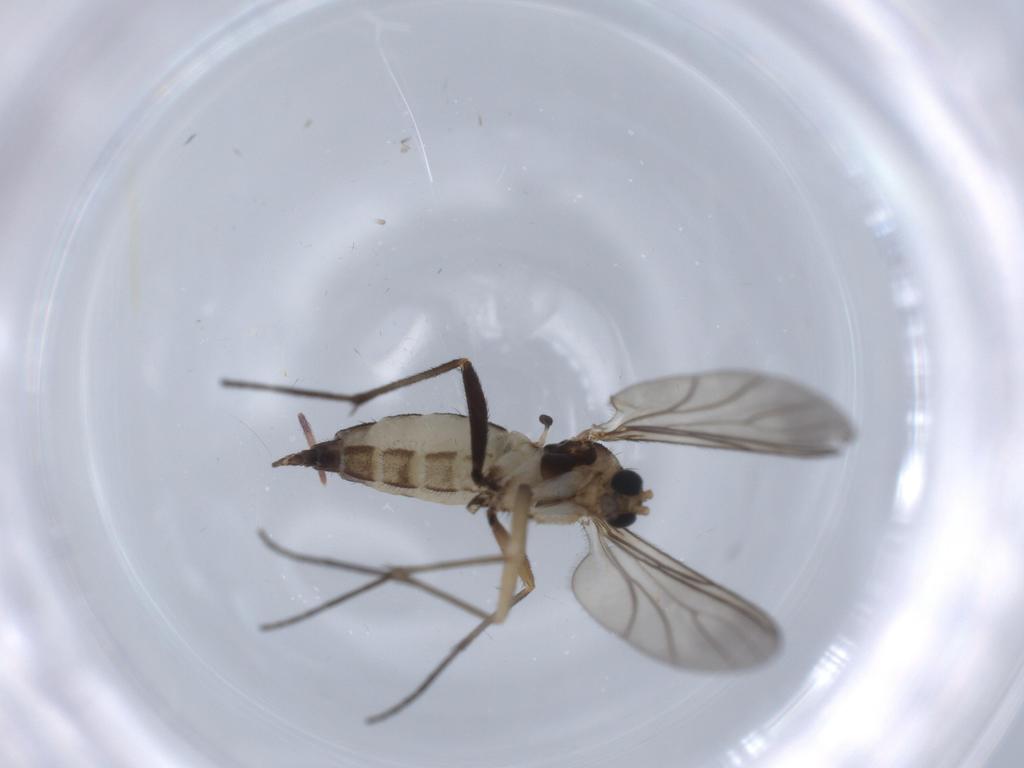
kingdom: Animalia
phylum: Arthropoda
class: Insecta
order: Diptera
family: Sciaridae
